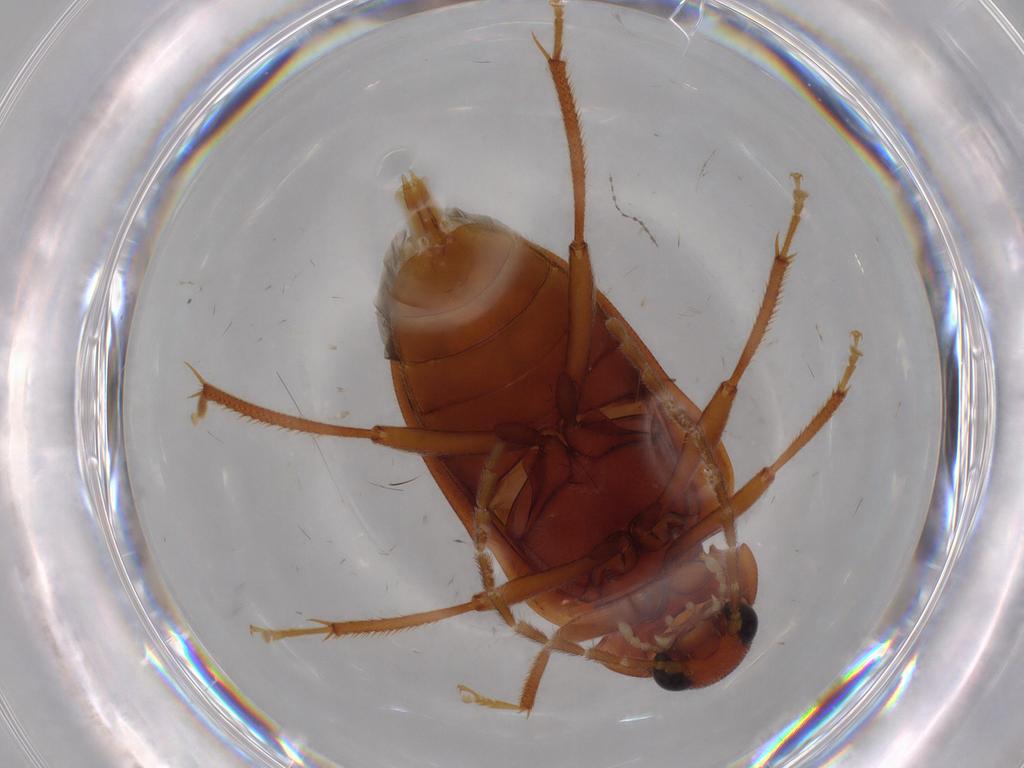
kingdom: Animalia
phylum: Arthropoda
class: Insecta
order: Coleoptera
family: Ptilodactylidae
